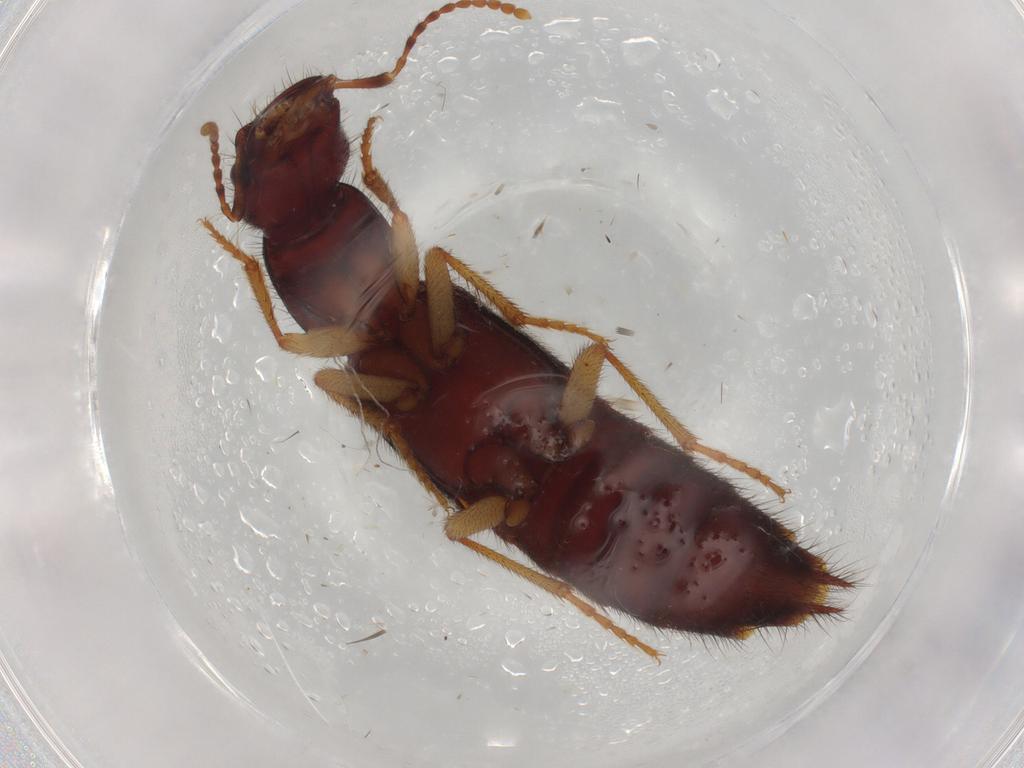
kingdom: Animalia
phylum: Arthropoda
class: Insecta
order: Coleoptera
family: Staphylinidae
